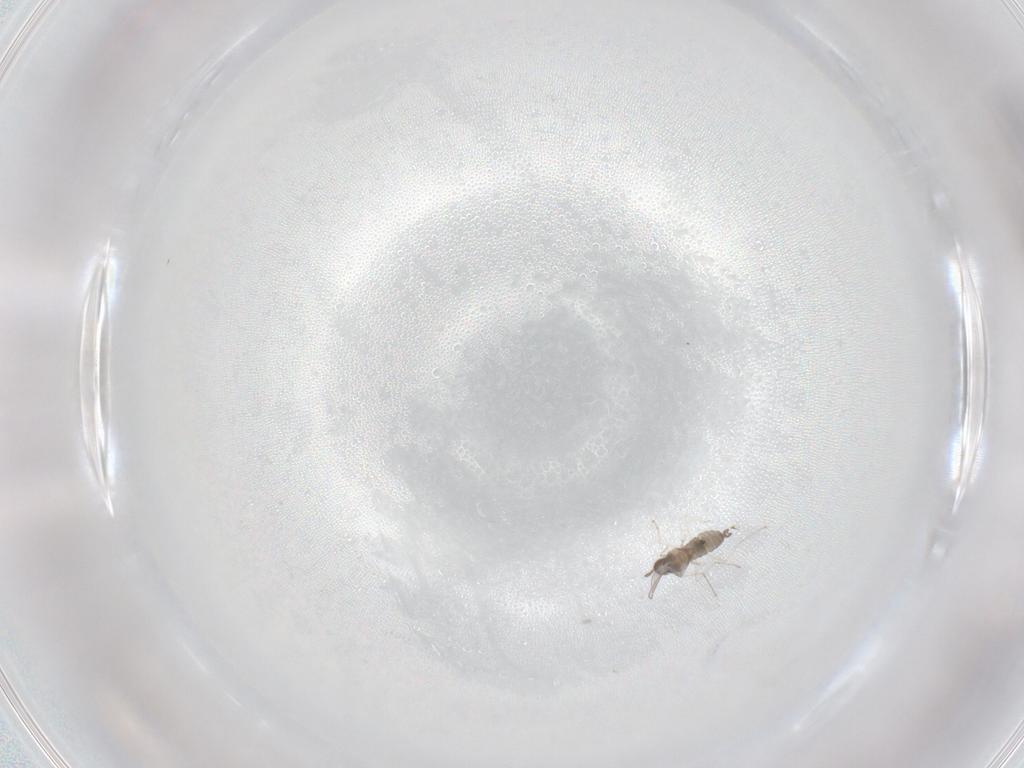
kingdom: Animalia
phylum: Arthropoda
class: Insecta
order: Diptera
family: Cecidomyiidae
